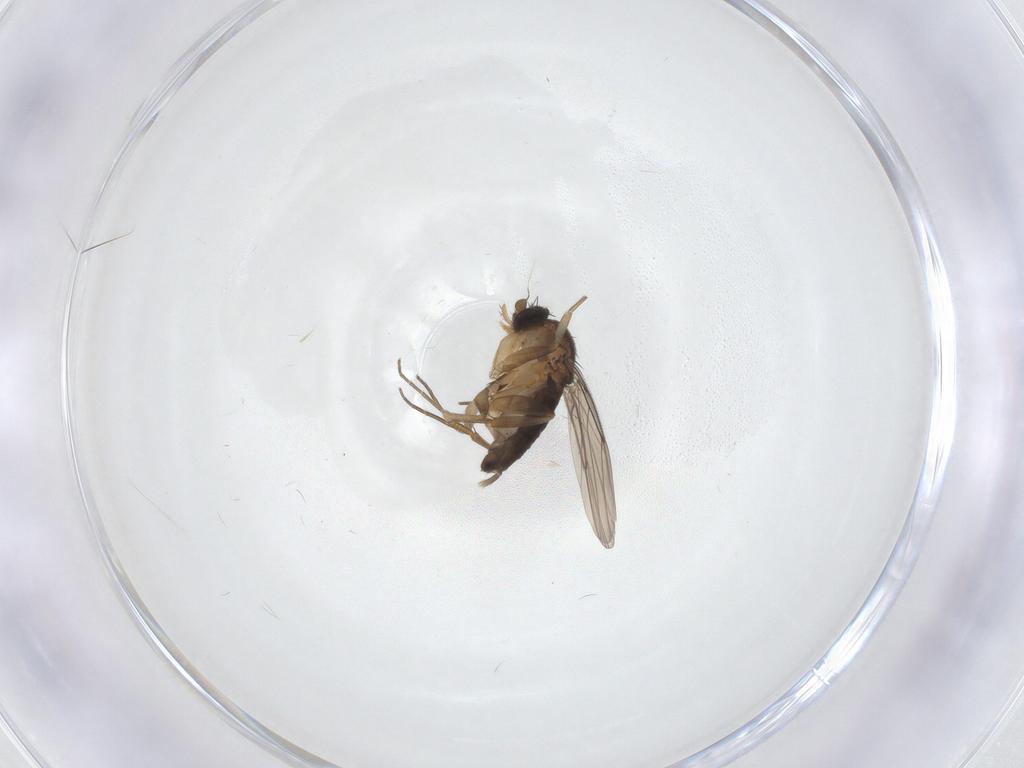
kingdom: Animalia
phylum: Arthropoda
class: Insecta
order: Diptera
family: Phoridae
